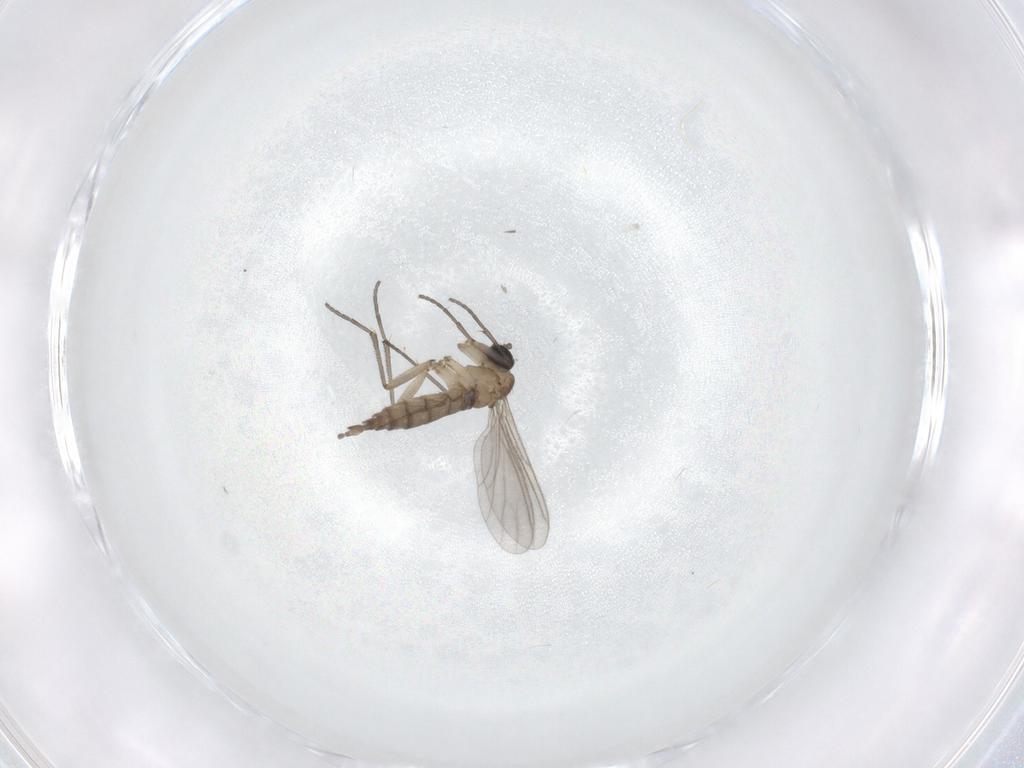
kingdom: Animalia
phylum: Arthropoda
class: Insecta
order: Diptera
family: Sciaridae
